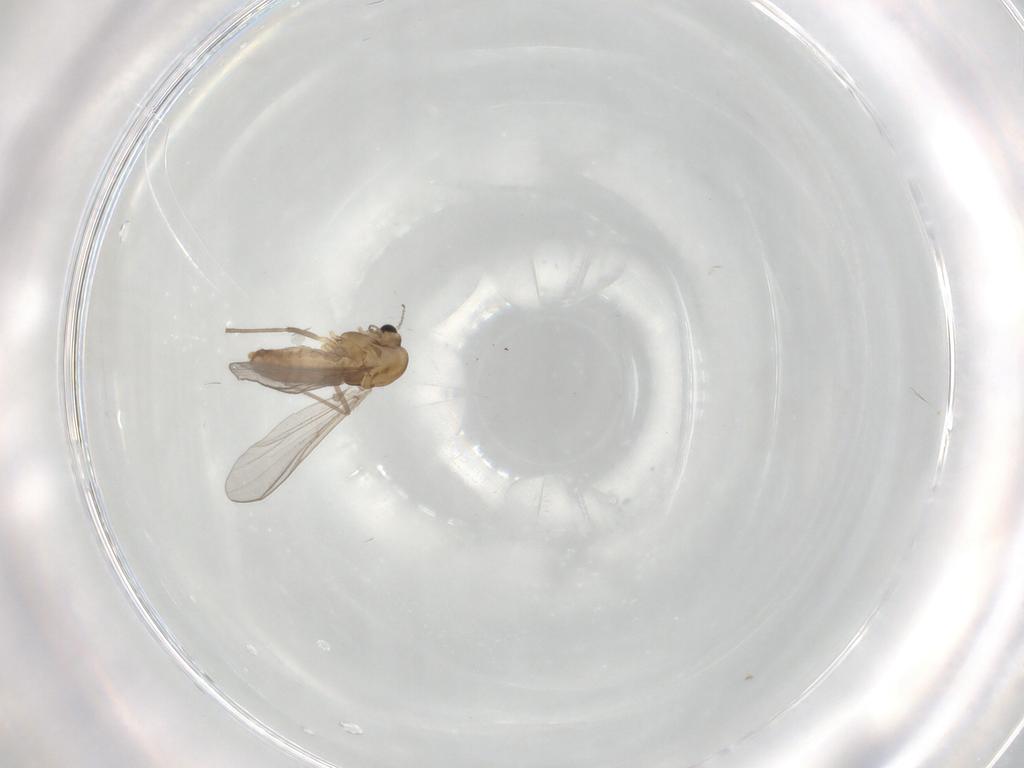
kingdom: Animalia
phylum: Arthropoda
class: Insecta
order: Diptera
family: Chironomidae
